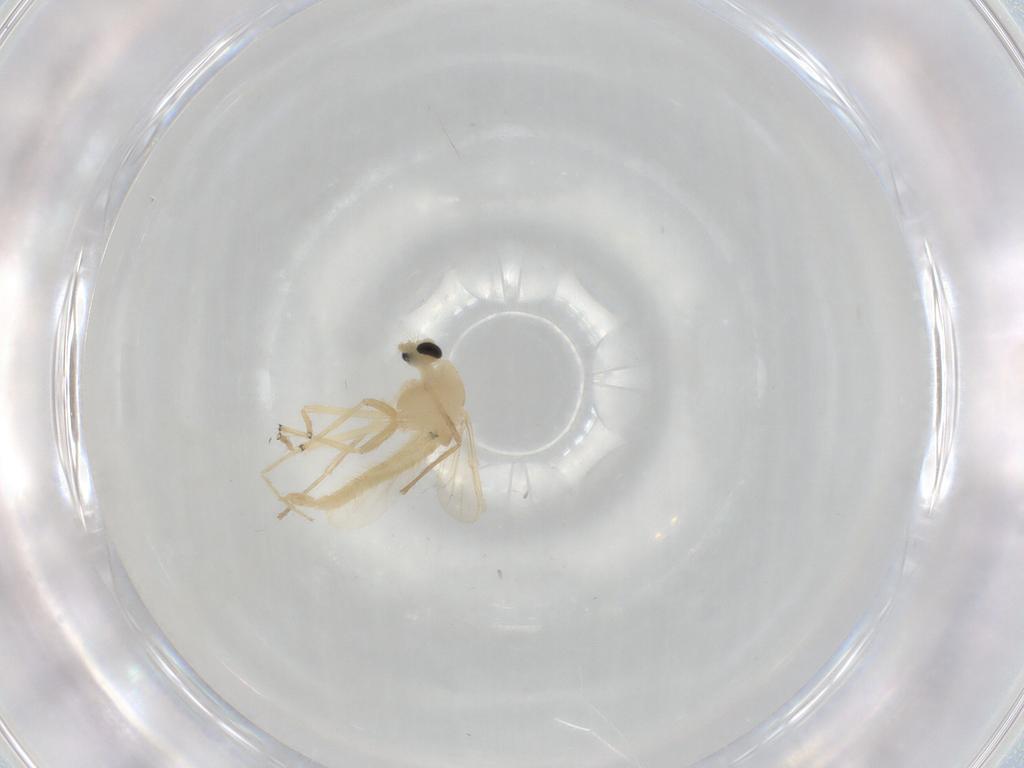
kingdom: Animalia
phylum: Arthropoda
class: Insecta
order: Diptera
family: Chironomidae
